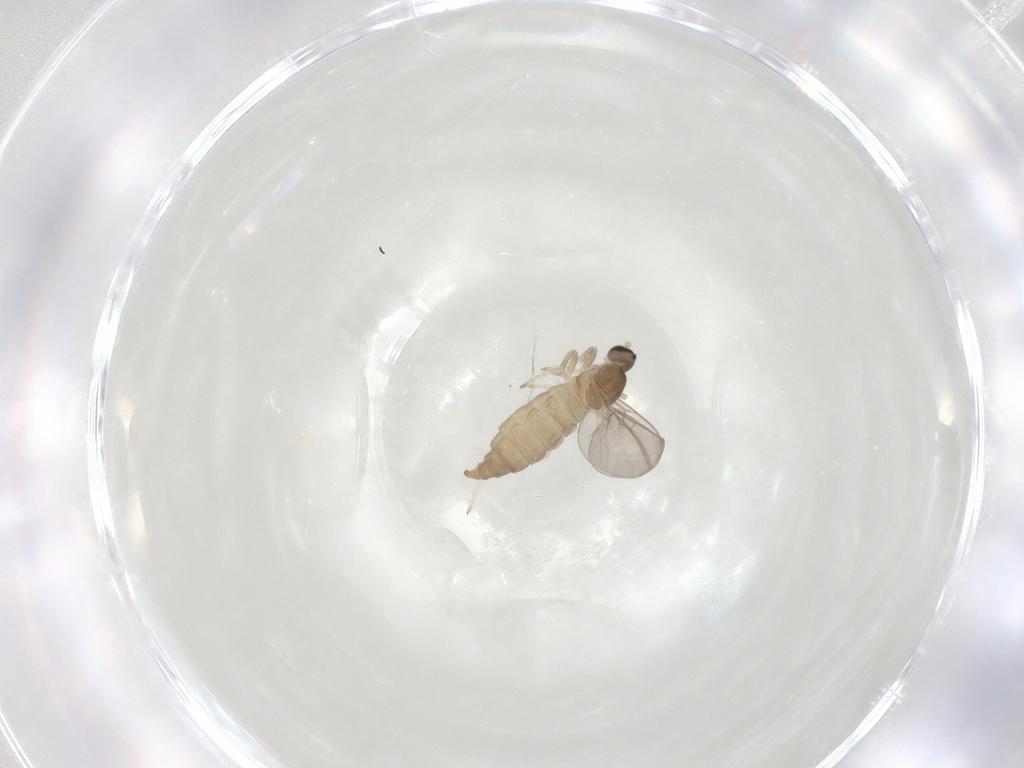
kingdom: Animalia
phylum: Arthropoda
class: Insecta
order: Diptera
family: Cecidomyiidae
